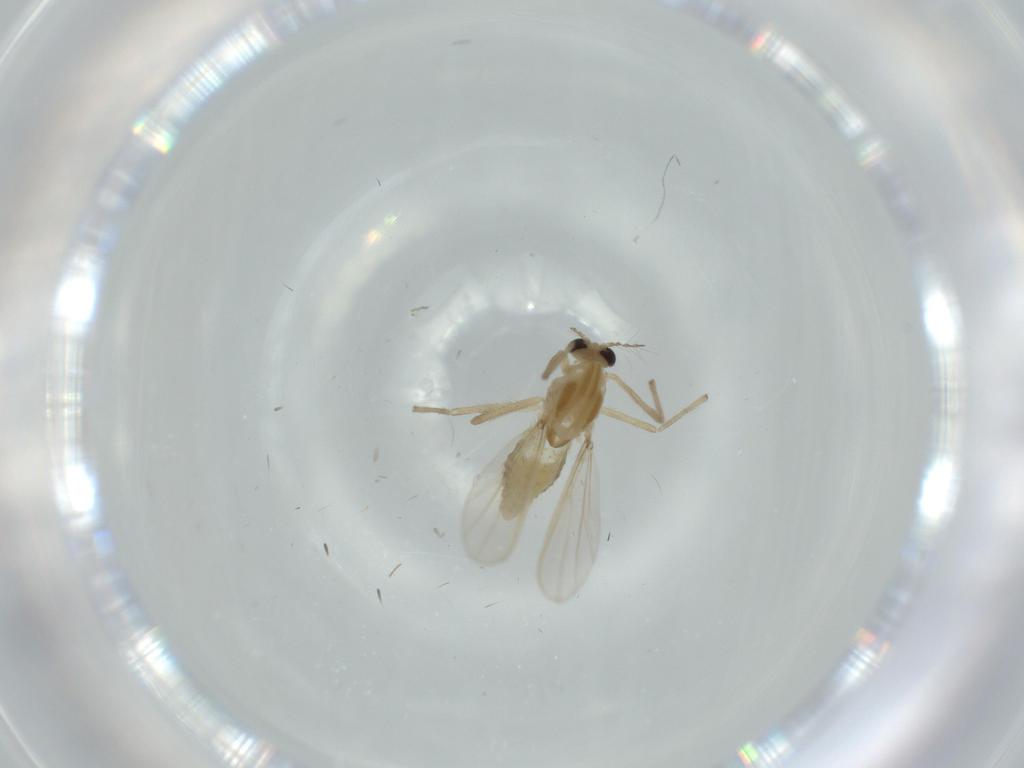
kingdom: Animalia
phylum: Arthropoda
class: Insecta
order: Diptera
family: Chironomidae
